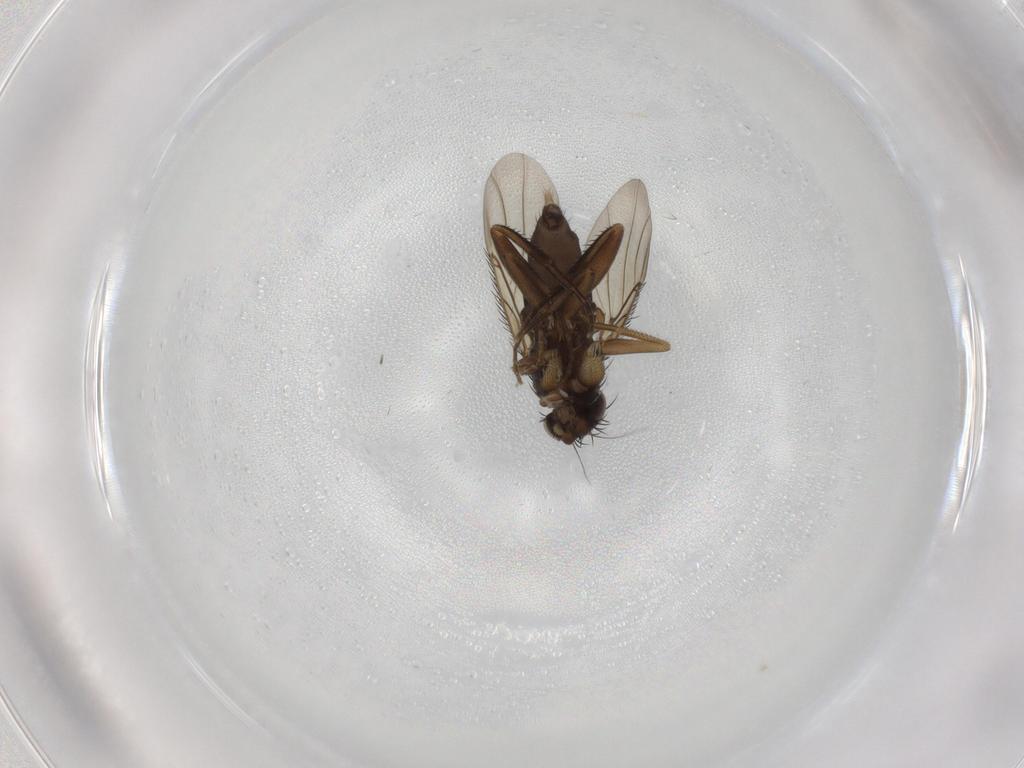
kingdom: Animalia
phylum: Arthropoda
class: Insecta
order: Diptera
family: Phoridae
